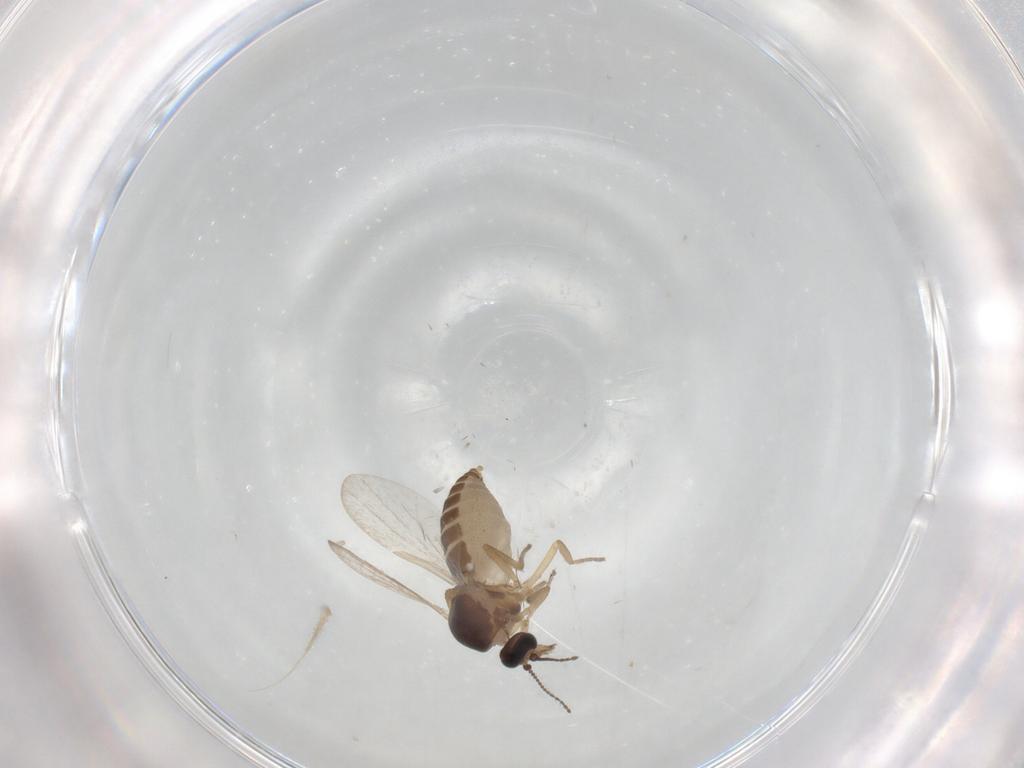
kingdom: Animalia
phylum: Arthropoda
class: Insecta
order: Diptera
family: Ceratopogonidae
